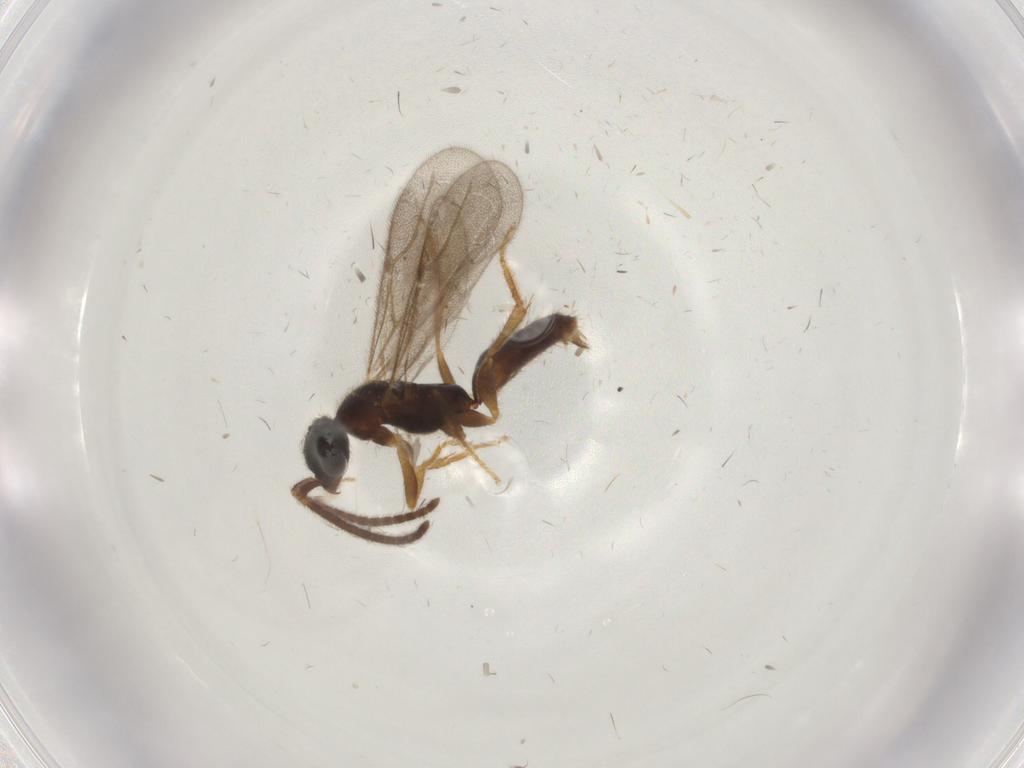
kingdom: Animalia
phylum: Arthropoda
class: Insecta
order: Hymenoptera
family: Bethylidae
